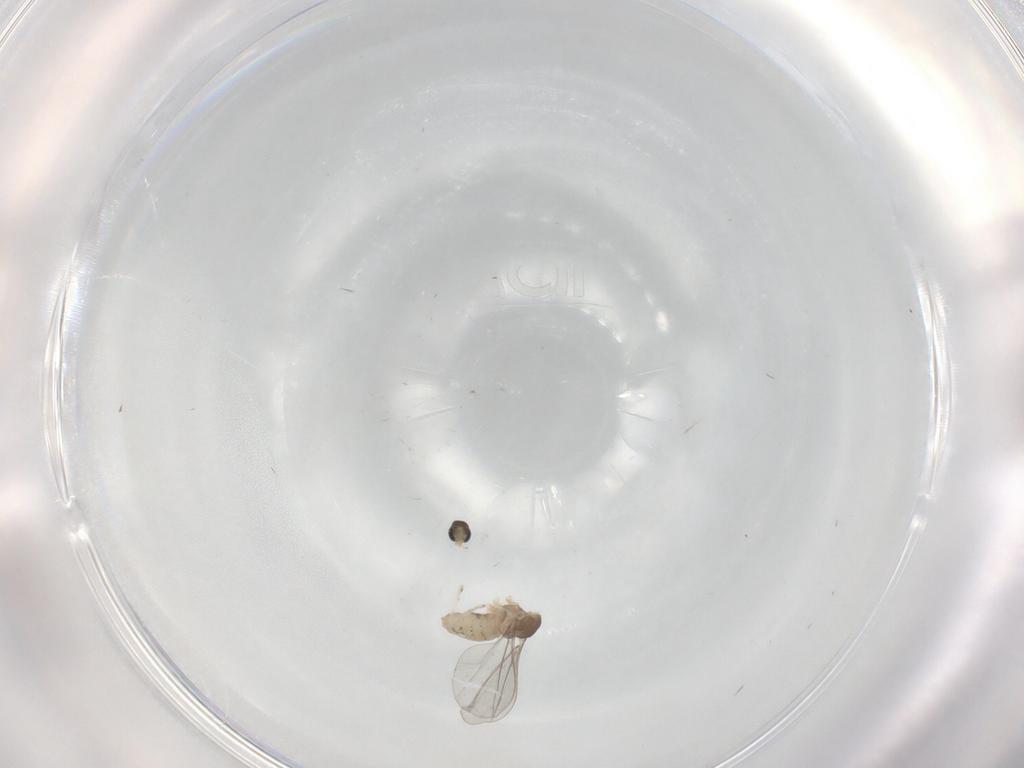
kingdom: Animalia
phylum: Arthropoda
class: Insecta
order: Diptera
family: Cecidomyiidae
